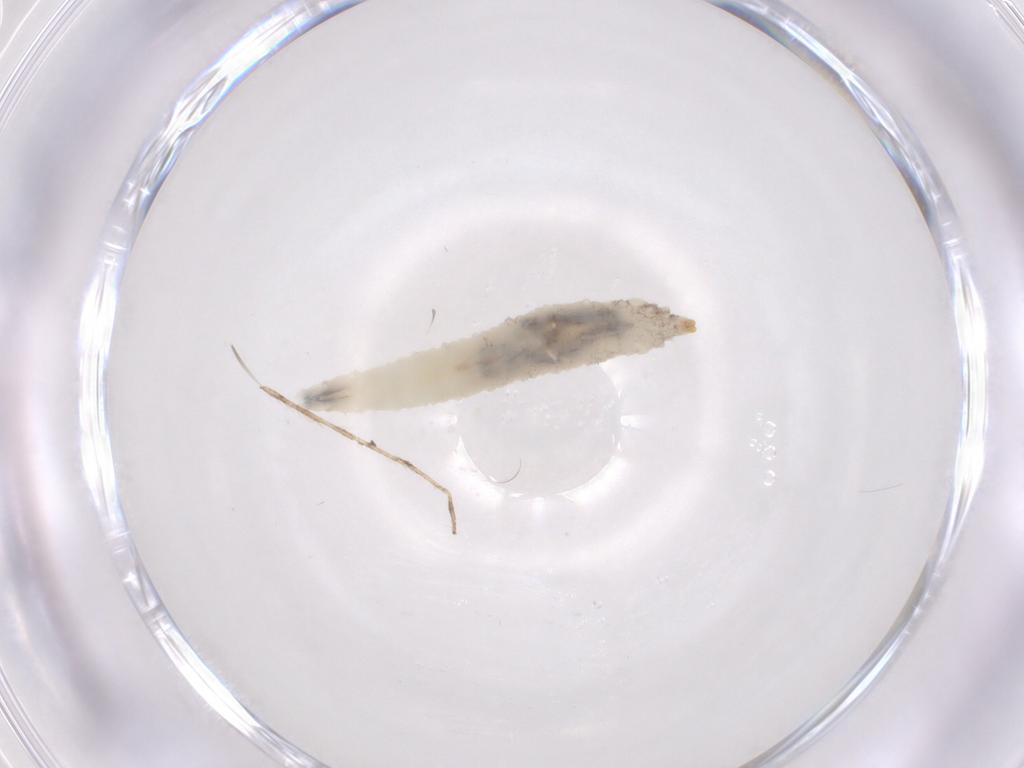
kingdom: Animalia
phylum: Arthropoda
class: Insecta
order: Diptera
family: Drosophilidae
